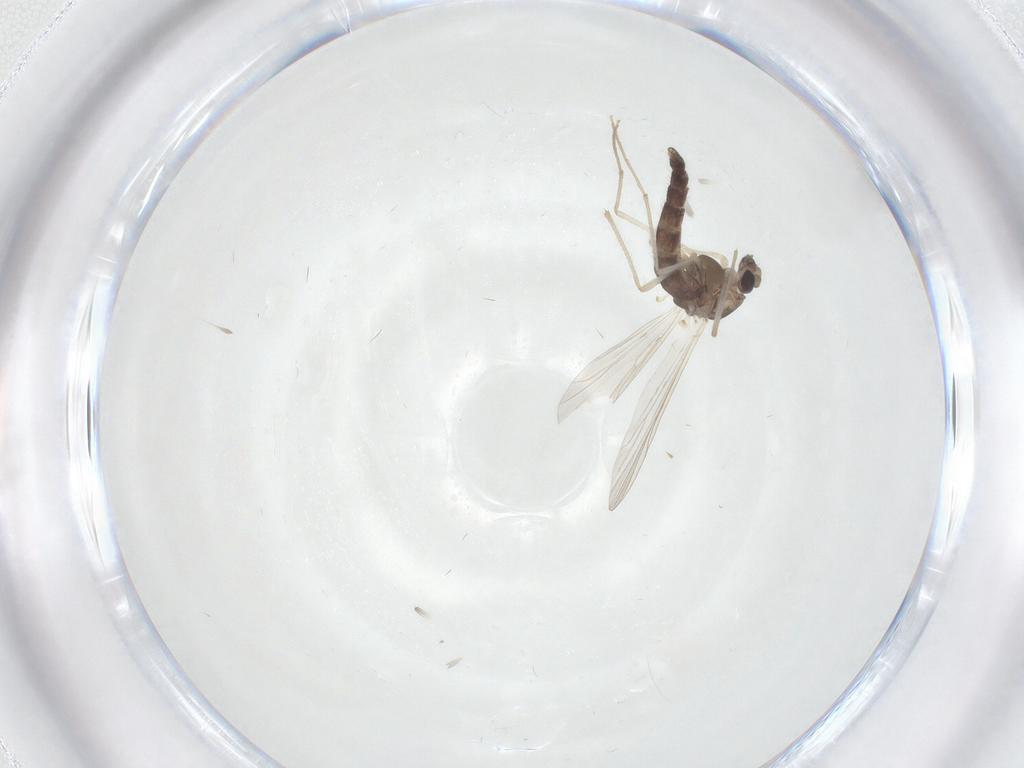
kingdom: Animalia
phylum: Arthropoda
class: Insecta
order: Diptera
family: Chironomidae
